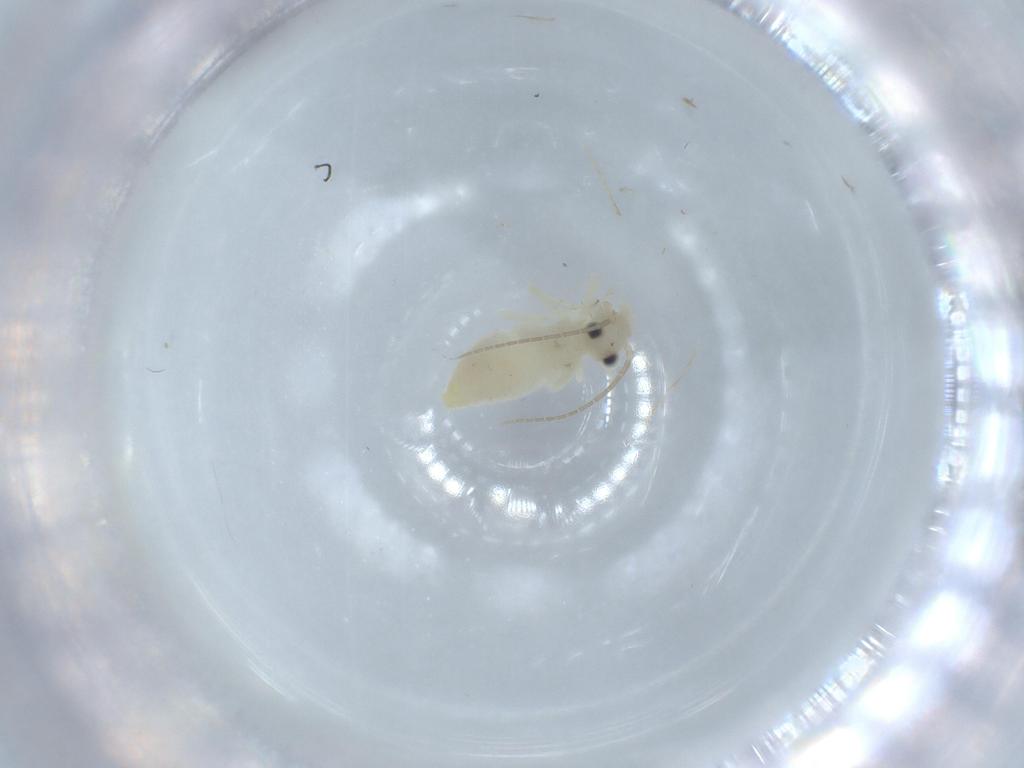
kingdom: Animalia
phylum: Arthropoda
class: Insecta
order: Psocodea
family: Caeciliusidae
